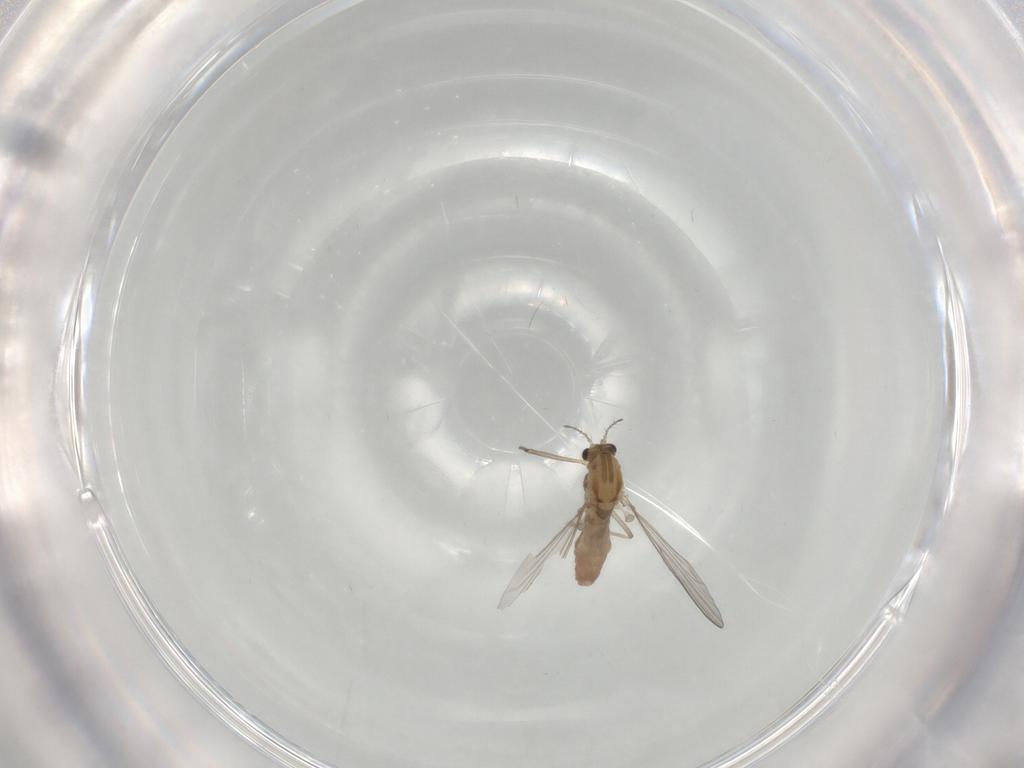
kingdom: Animalia
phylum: Arthropoda
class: Insecta
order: Diptera
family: Chironomidae
